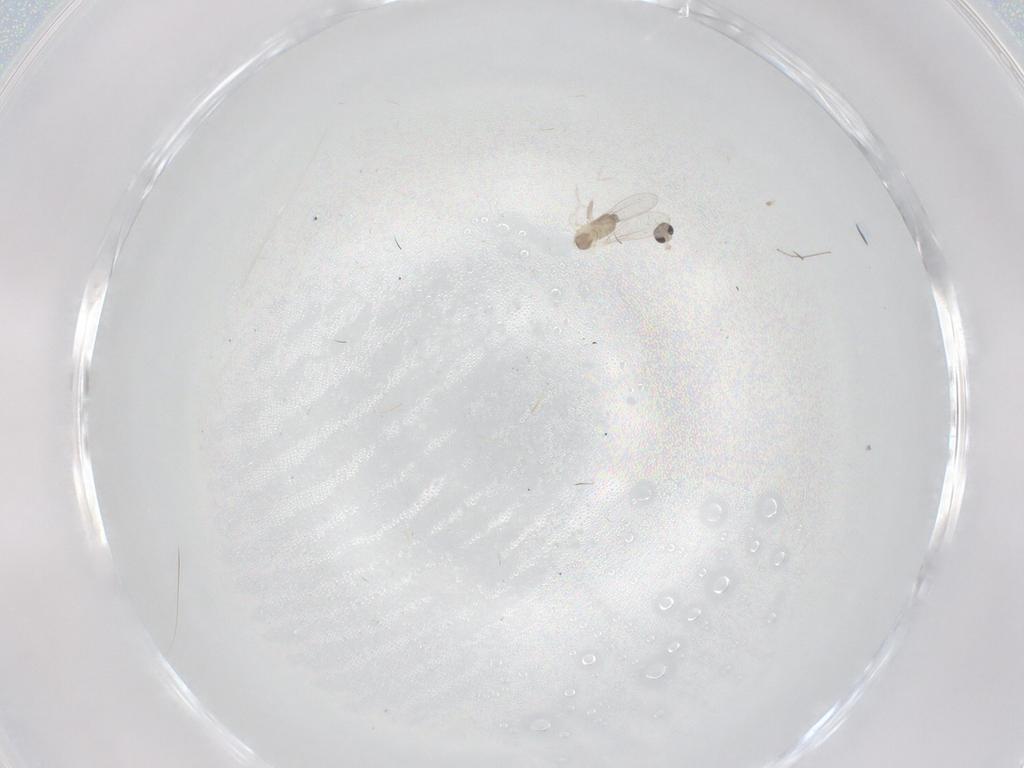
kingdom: Animalia
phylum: Arthropoda
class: Insecta
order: Diptera
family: Cecidomyiidae
